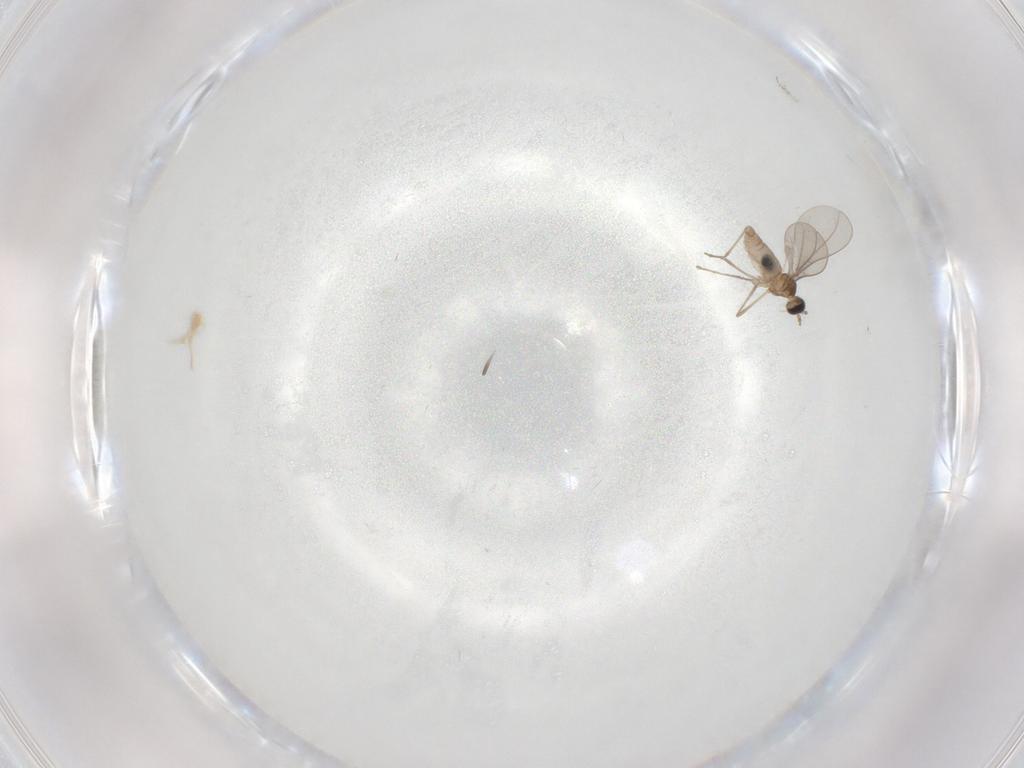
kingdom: Animalia
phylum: Arthropoda
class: Insecta
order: Diptera
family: Cecidomyiidae
